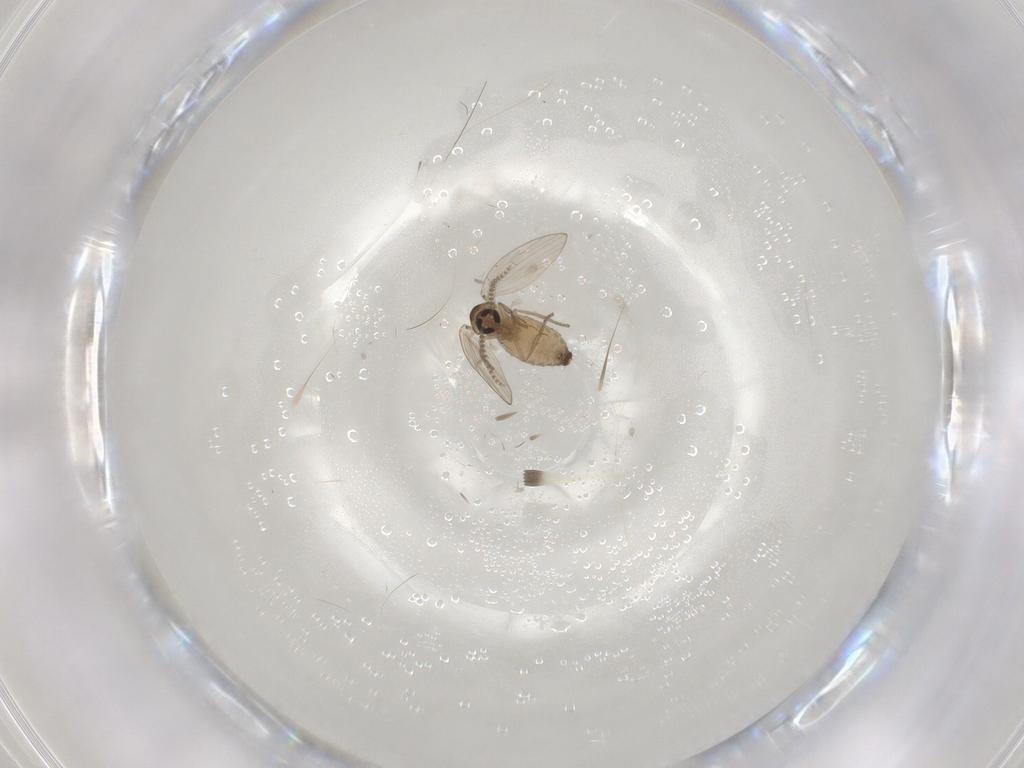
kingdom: Animalia
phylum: Arthropoda
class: Insecta
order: Diptera
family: Psychodidae
